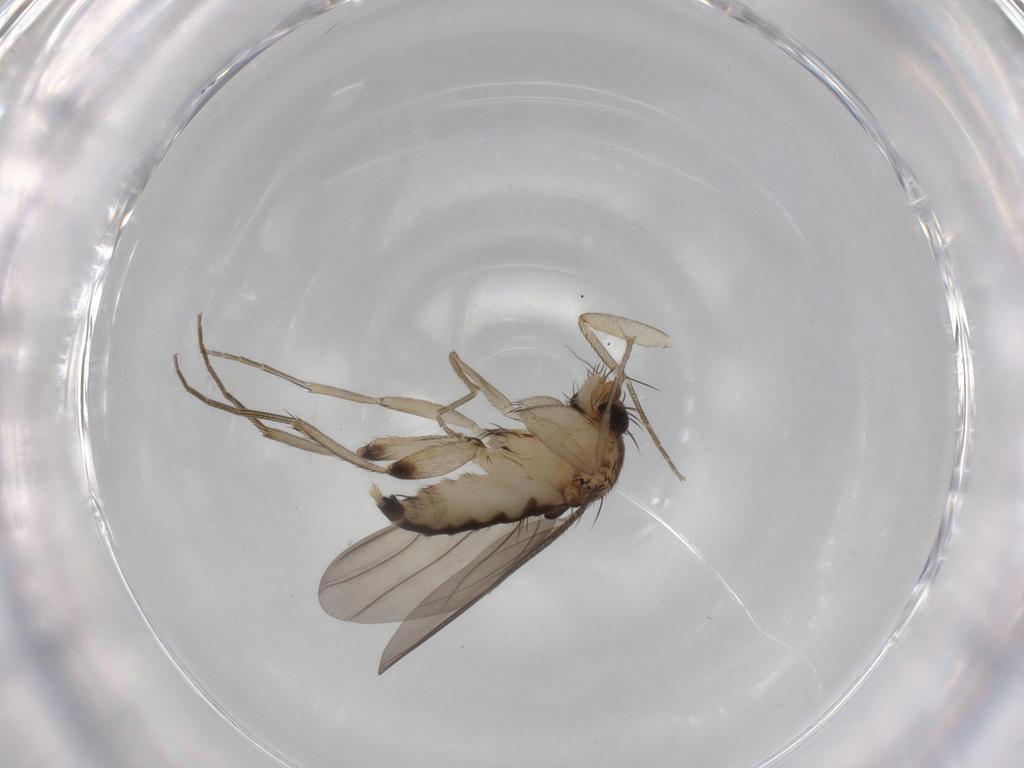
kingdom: Animalia
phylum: Arthropoda
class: Insecta
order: Diptera
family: Phoridae
